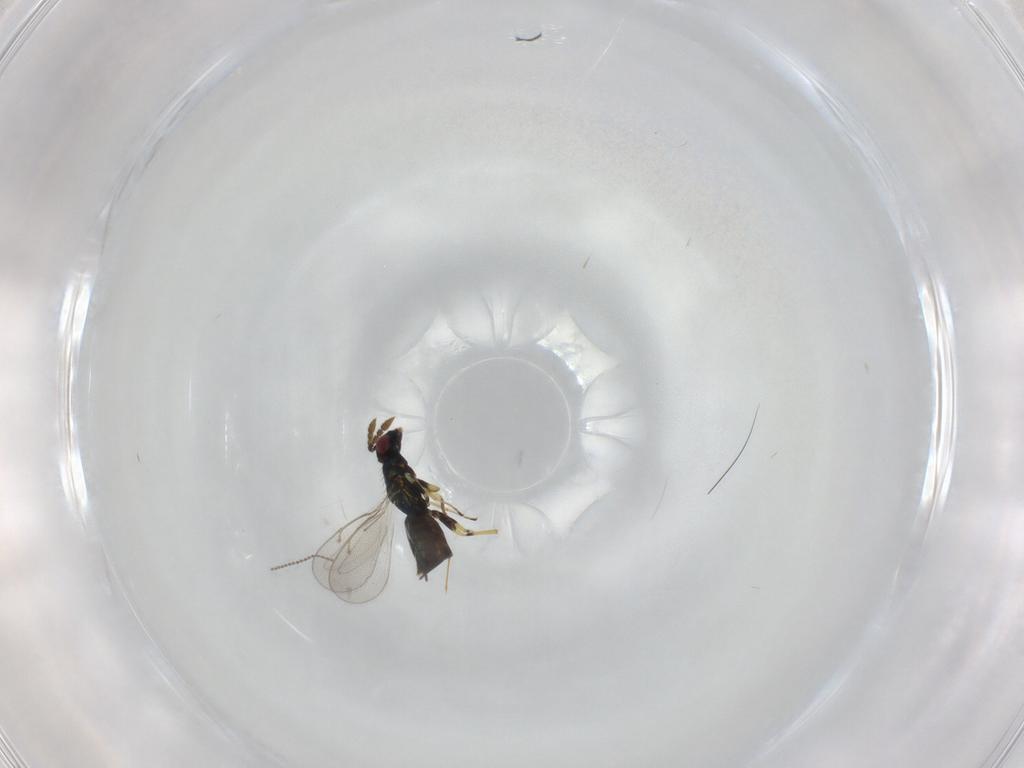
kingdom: Animalia
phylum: Arthropoda
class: Insecta
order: Hymenoptera
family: Eulophidae
